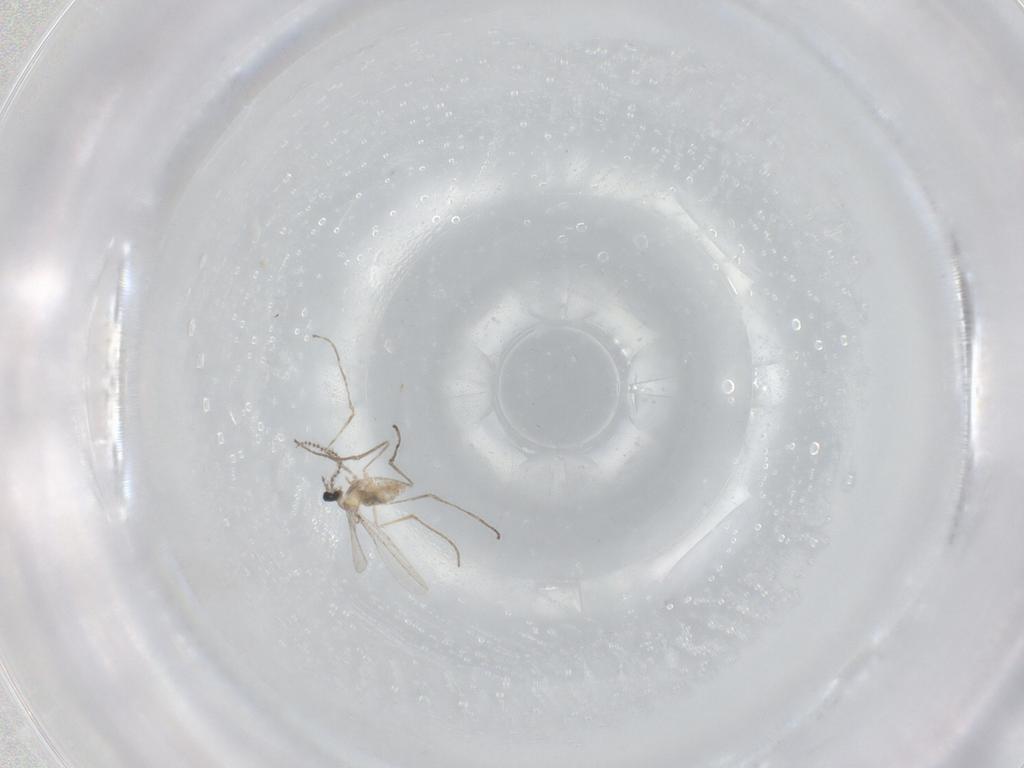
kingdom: Animalia
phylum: Arthropoda
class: Insecta
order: Diptera
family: Cecidomyiidae
